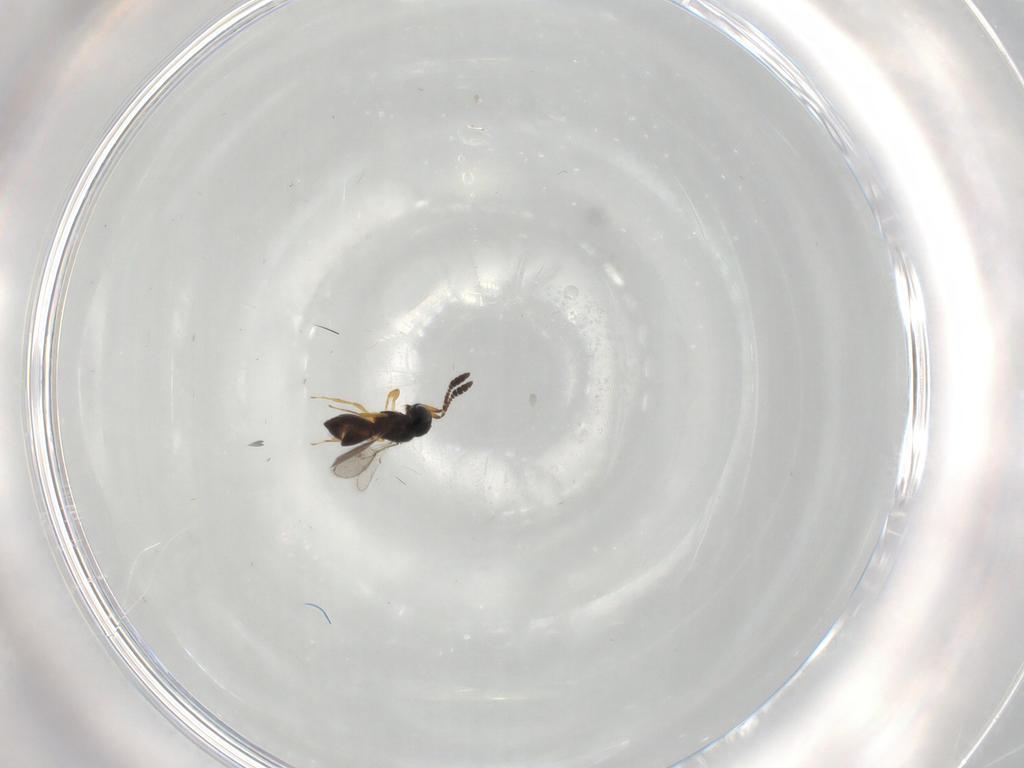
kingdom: Animalia
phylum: Arthropoda
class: Insecta
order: Hymenoptera
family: Scelionidae
